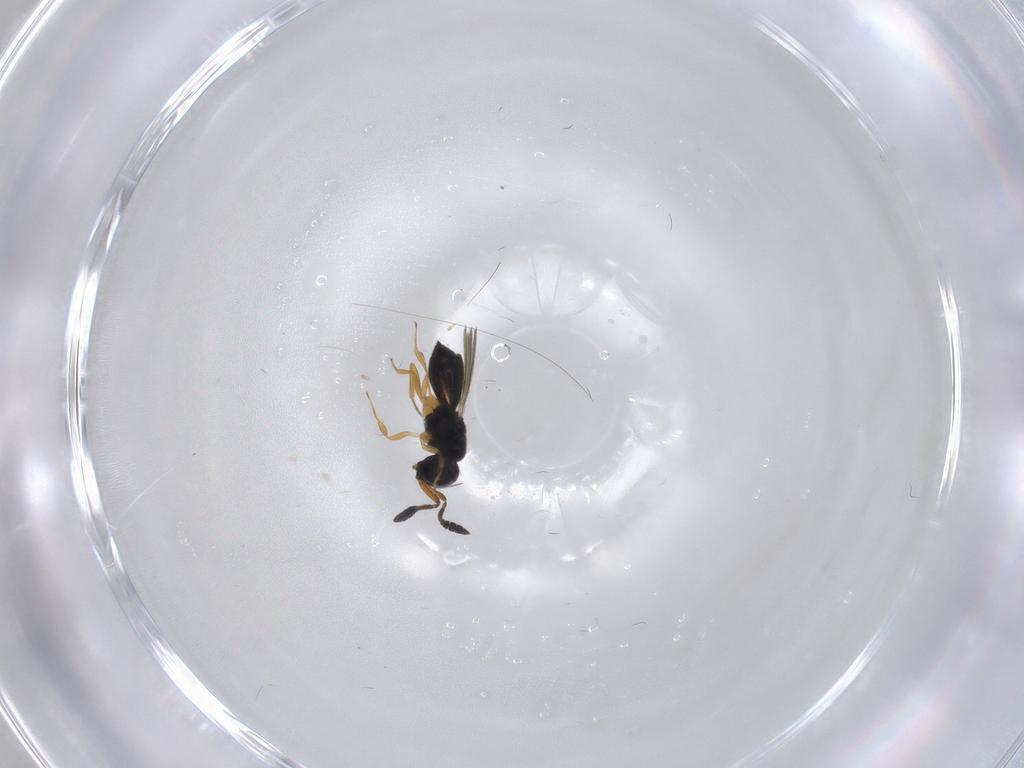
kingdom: Animalia
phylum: Arthropoda
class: Insecta
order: Hymenoptera
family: Scelionidae
